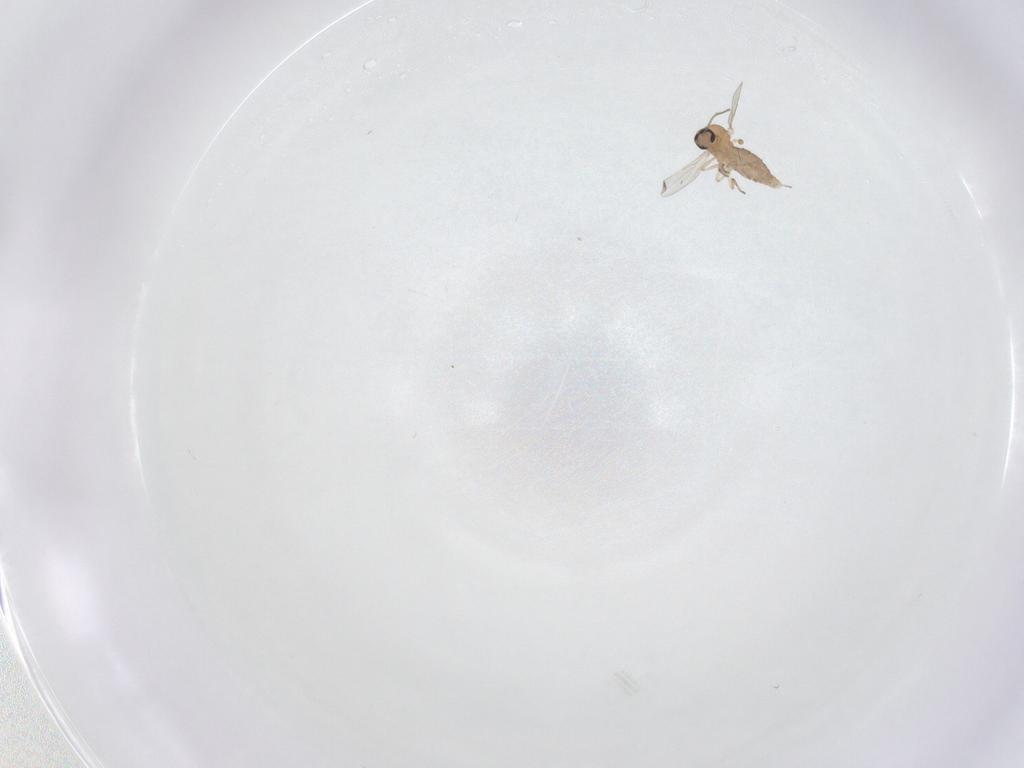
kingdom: Animalia
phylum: Arthropoda
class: Insecta
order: Diptera
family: Ceratopogonidae
